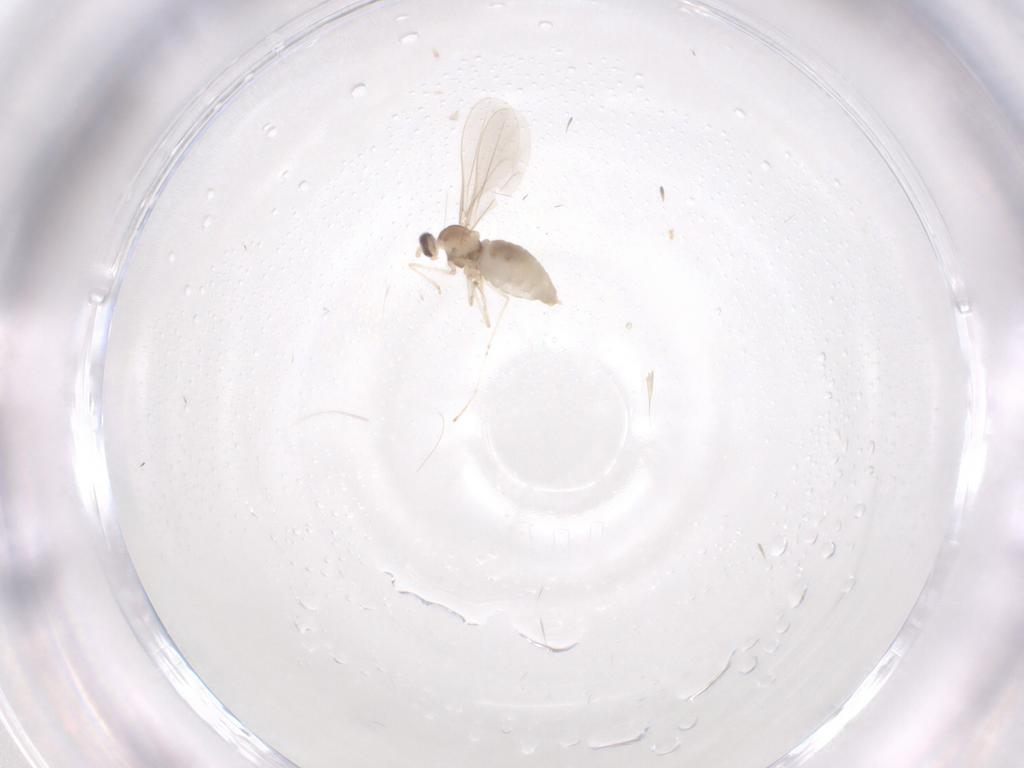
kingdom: Animalia
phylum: Arthropoda
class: Insecta
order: Diptera
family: Cecidomyiidae
